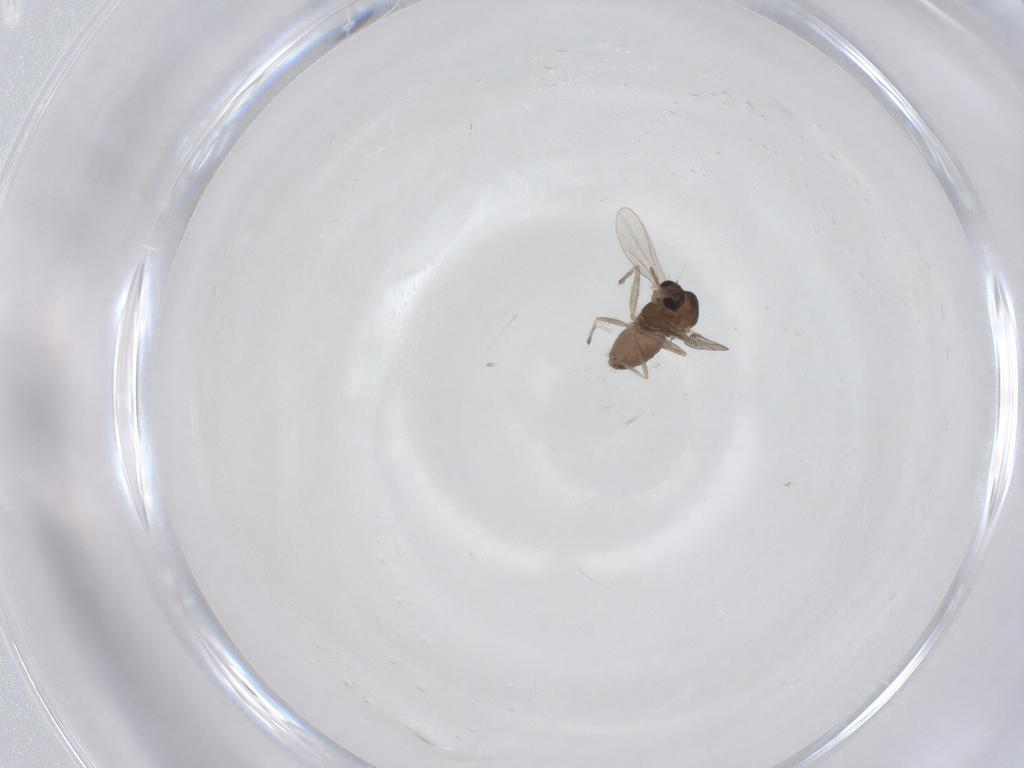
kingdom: Animalia
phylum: Arthropoda
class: Insecta
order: Diptera
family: Chironomidae
